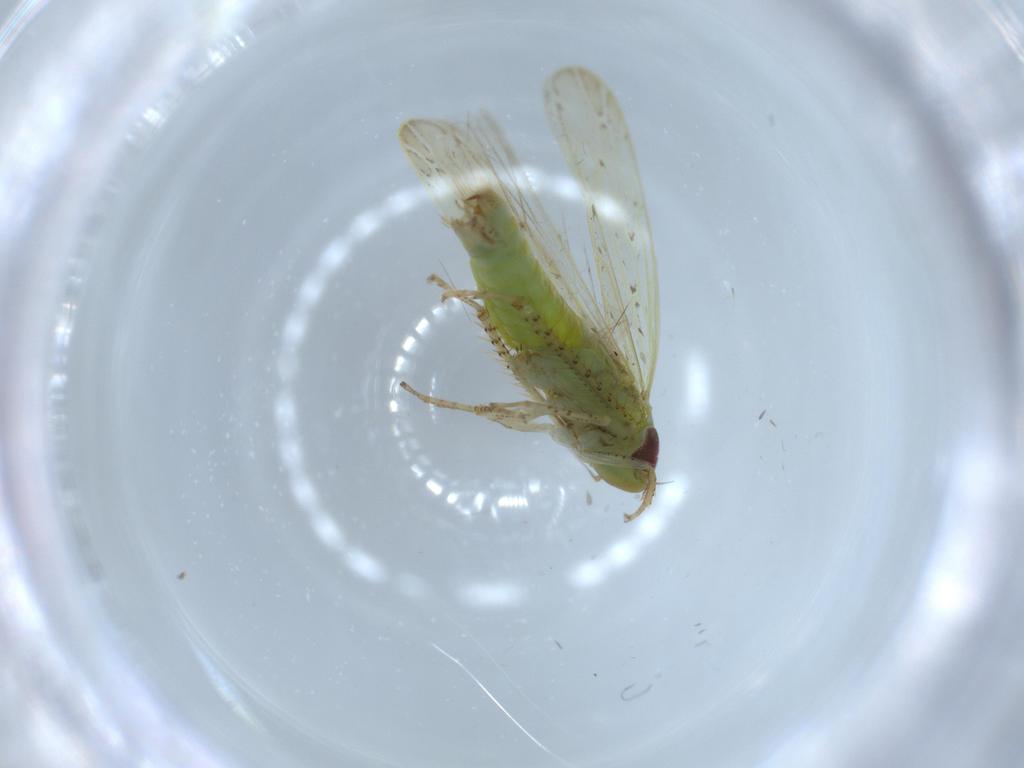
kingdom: Animalia
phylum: Arthropoda
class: Insecta
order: Hemiptera
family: Cicadellidae
